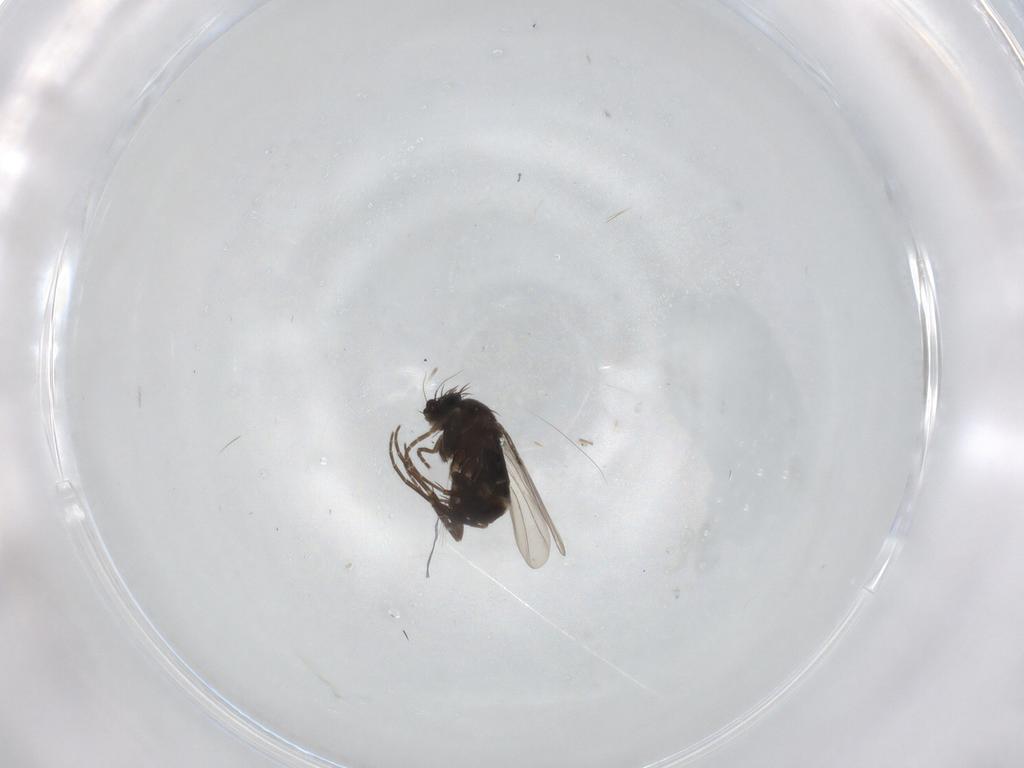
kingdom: Animalia
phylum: Arthropoda
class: Insecta
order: Diptera
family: Phoridae
